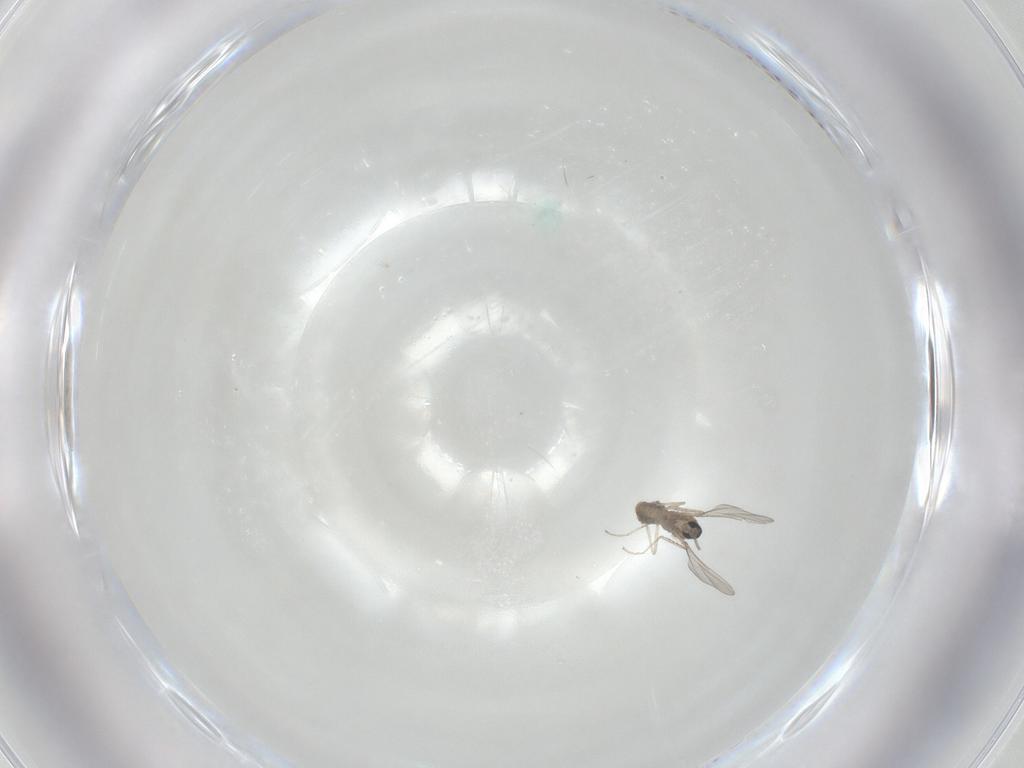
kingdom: Animalia
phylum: Arthropoda
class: Insecta
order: Diptera
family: Cecidomyiidae
